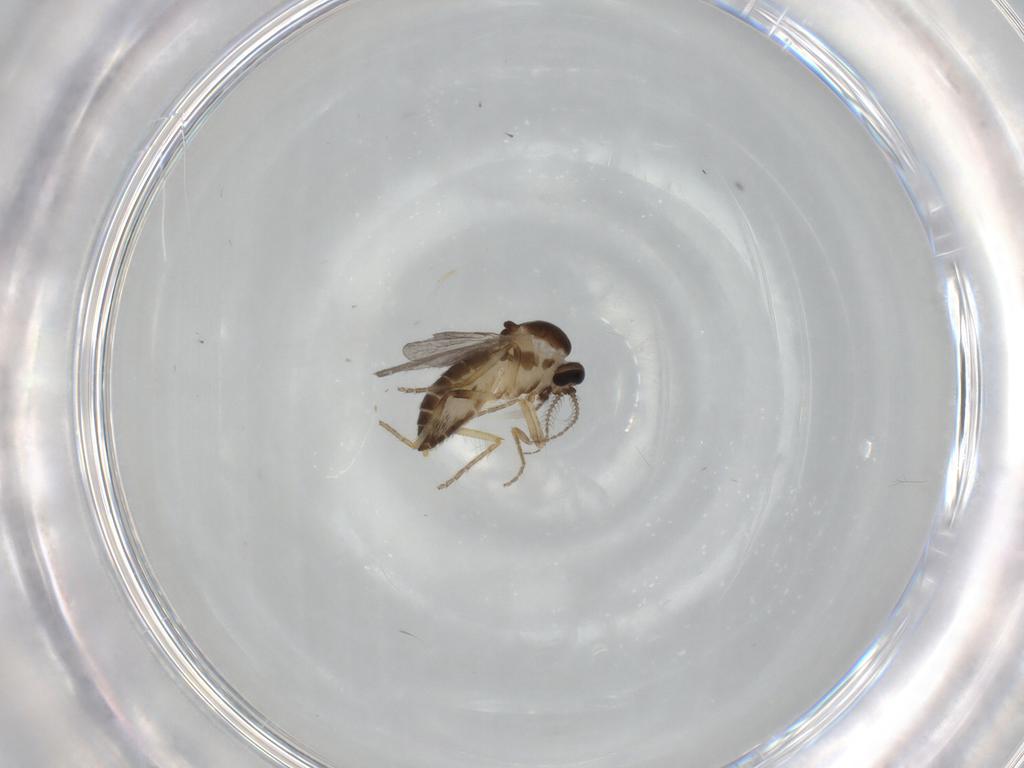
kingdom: Animalia
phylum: Arthropoda
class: Insecta
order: Diptera
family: Ceratopogonidae
